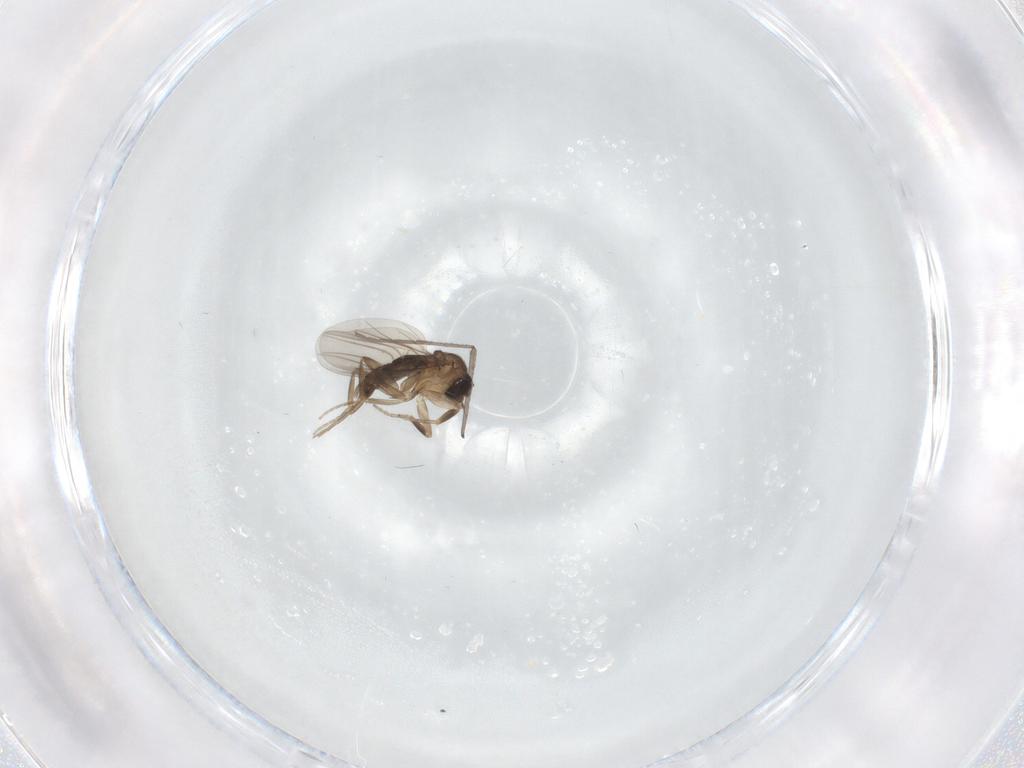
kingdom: Animalia
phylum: Arthropoda
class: Insecta
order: Diptera
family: Phoridae
